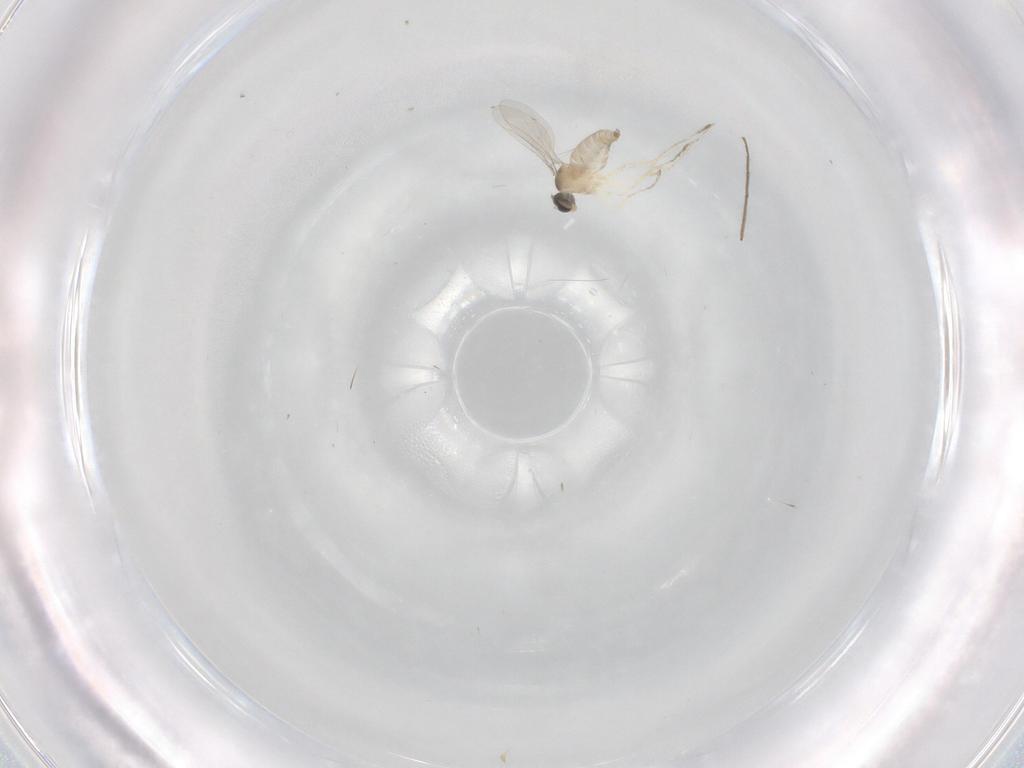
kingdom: Animalia
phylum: Arthropoda
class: Insecta
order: Diptera
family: Cecidomyiidae
